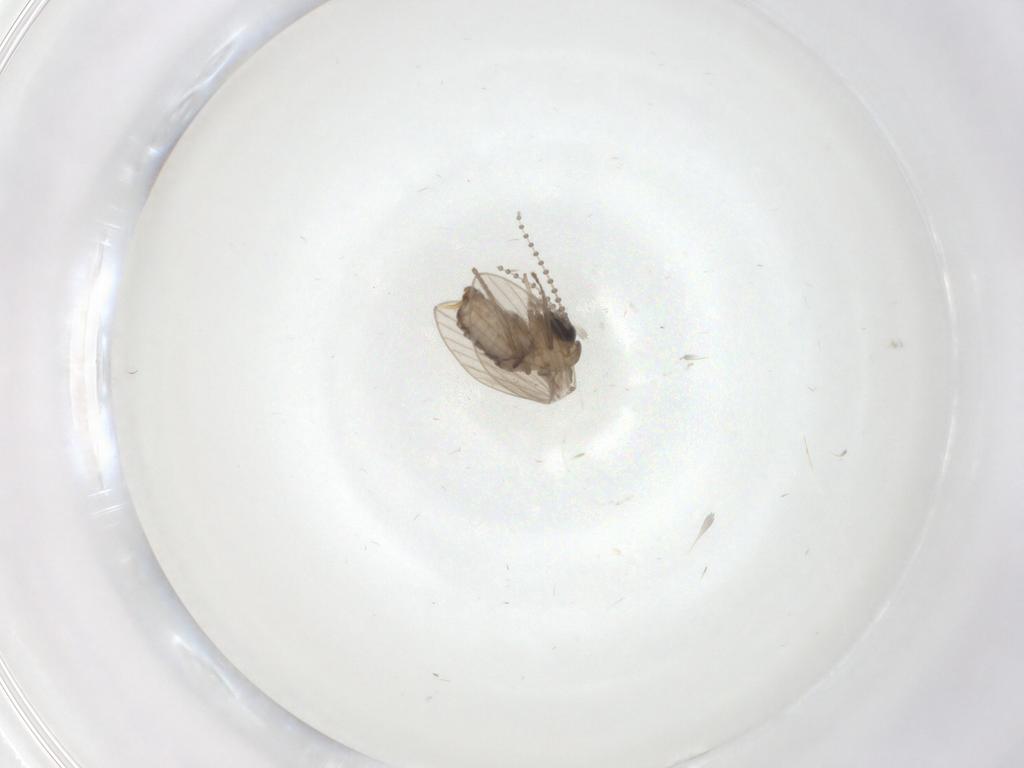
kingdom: Animalia
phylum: Arthropoda
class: Insecta
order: Diptera
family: Psychodidae
